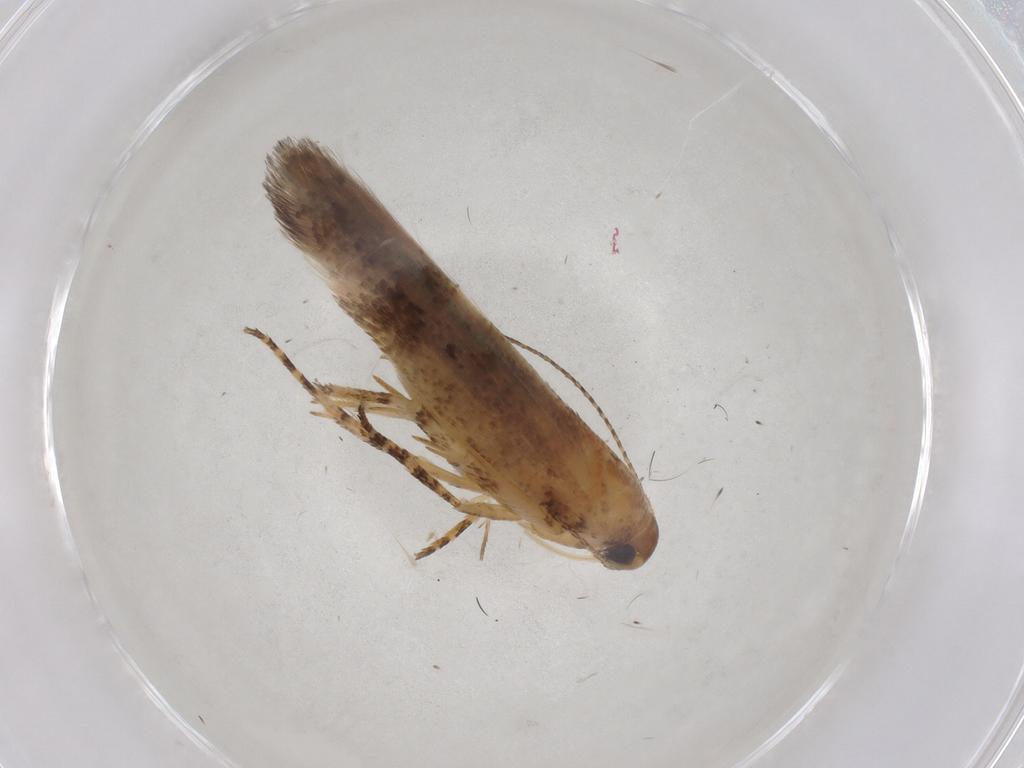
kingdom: Animalia
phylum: Arthropoda
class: Insecta
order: Lepidoptera
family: Gelechiidae
